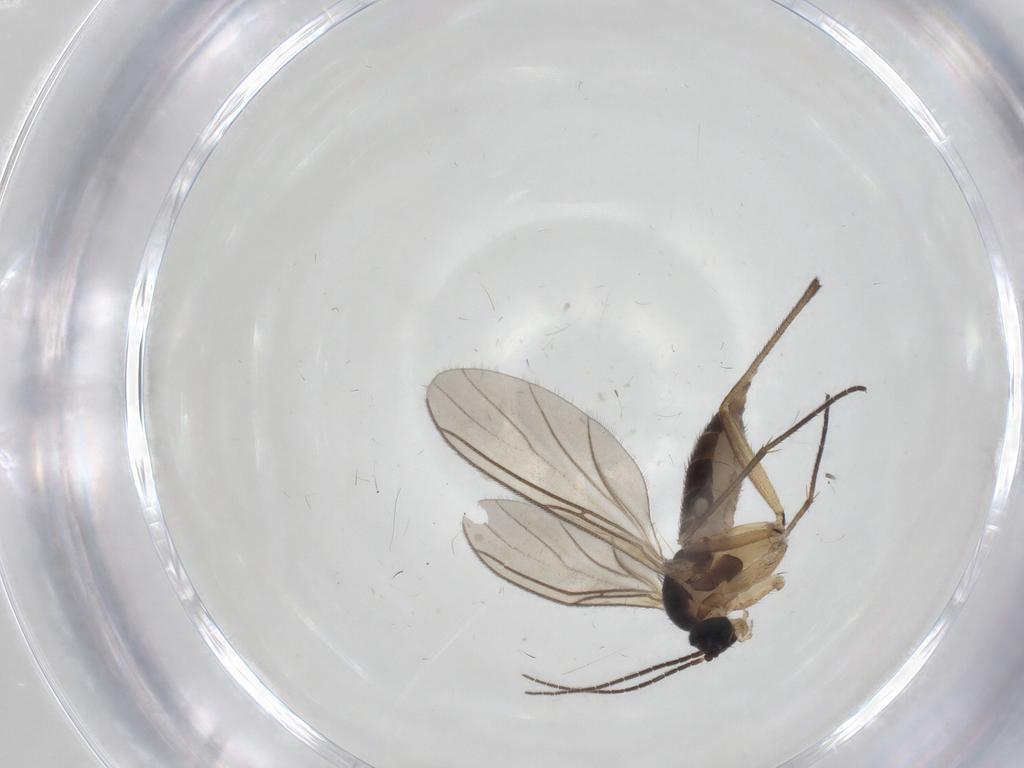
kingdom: Animalia
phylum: Arthropoda
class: Insecta
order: Diptera
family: Sciaridae
